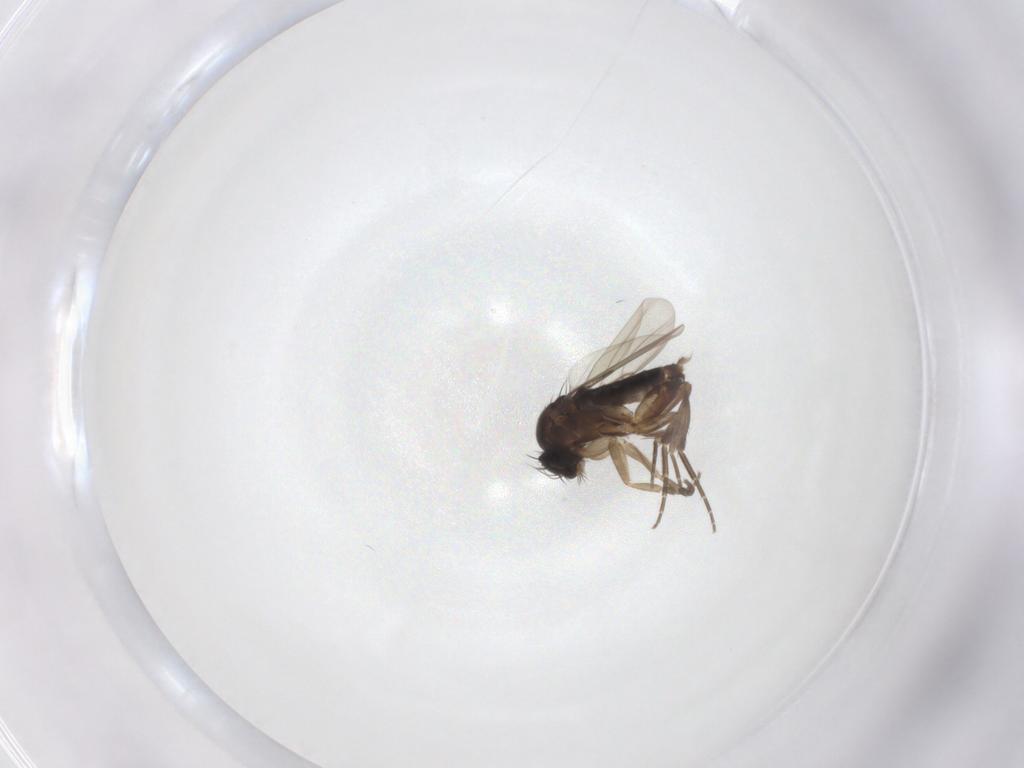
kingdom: Animalia
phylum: Arthropoda
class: Insecta
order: Diptera
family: Phoridae
